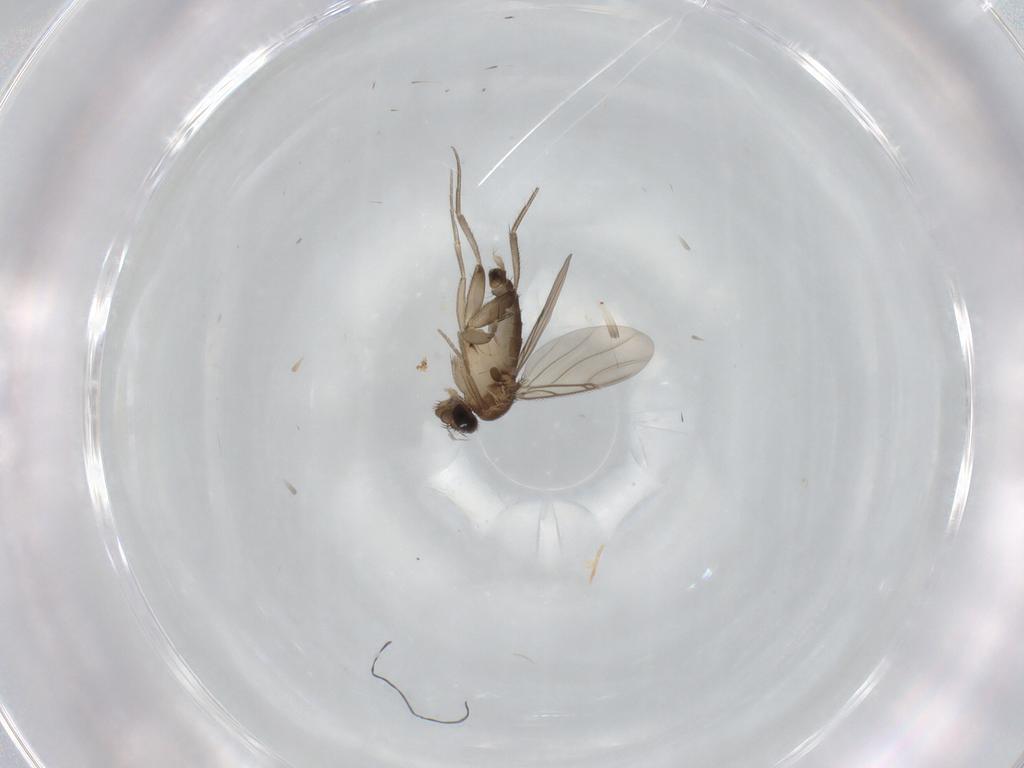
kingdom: Animalia
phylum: Arthropoda
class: Insecta
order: Diptera
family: Phoridae
